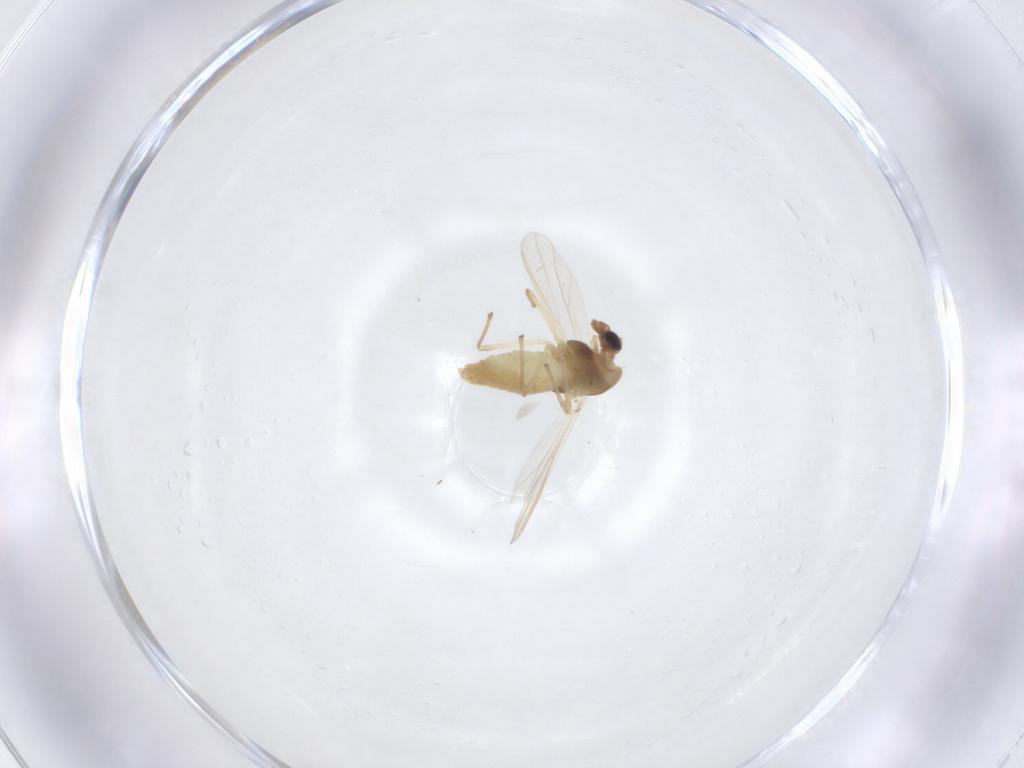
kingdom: Animalia
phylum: Arthropoda
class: Insecta
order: Diptera
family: Chironomidae
